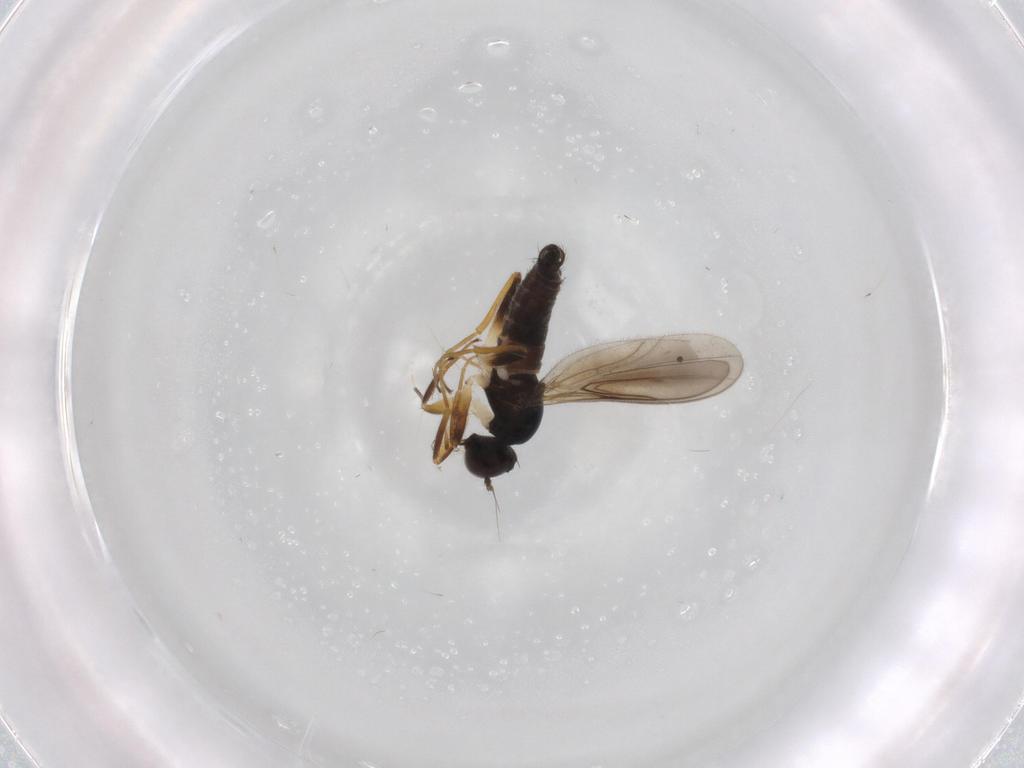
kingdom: Animalia
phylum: Arthropoda
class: Insecta
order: Diptera
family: Hybotidae
